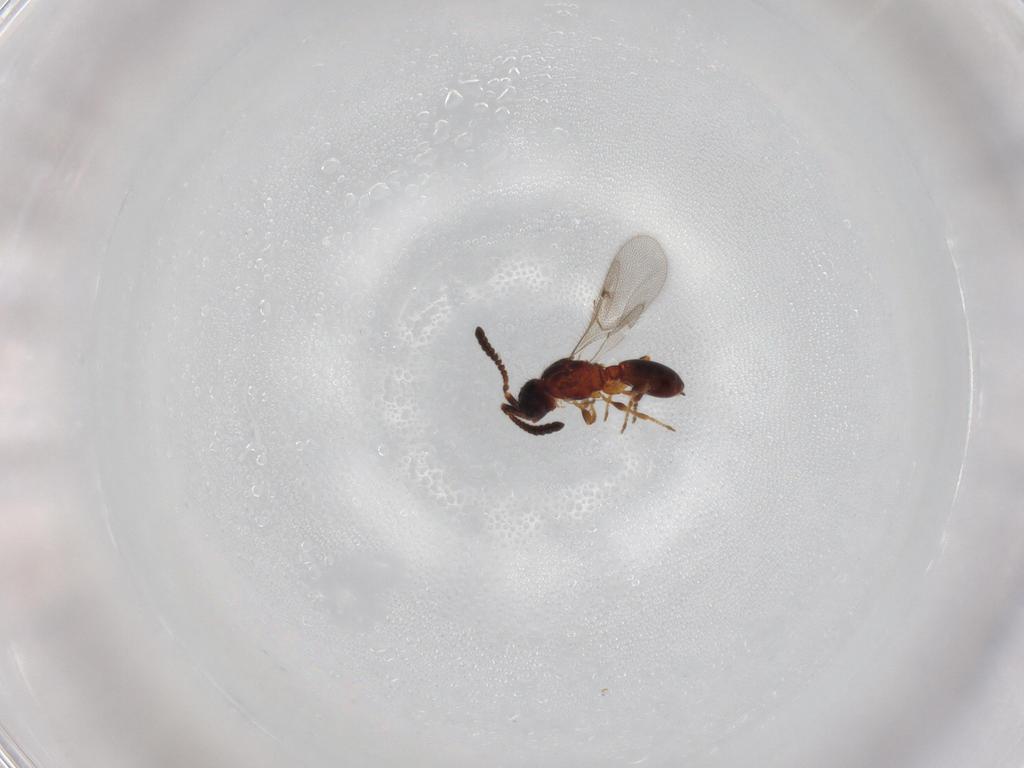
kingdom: Animalia
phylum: Arthropoda
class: Insecta
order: Hymenoptera
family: Diapriidae
